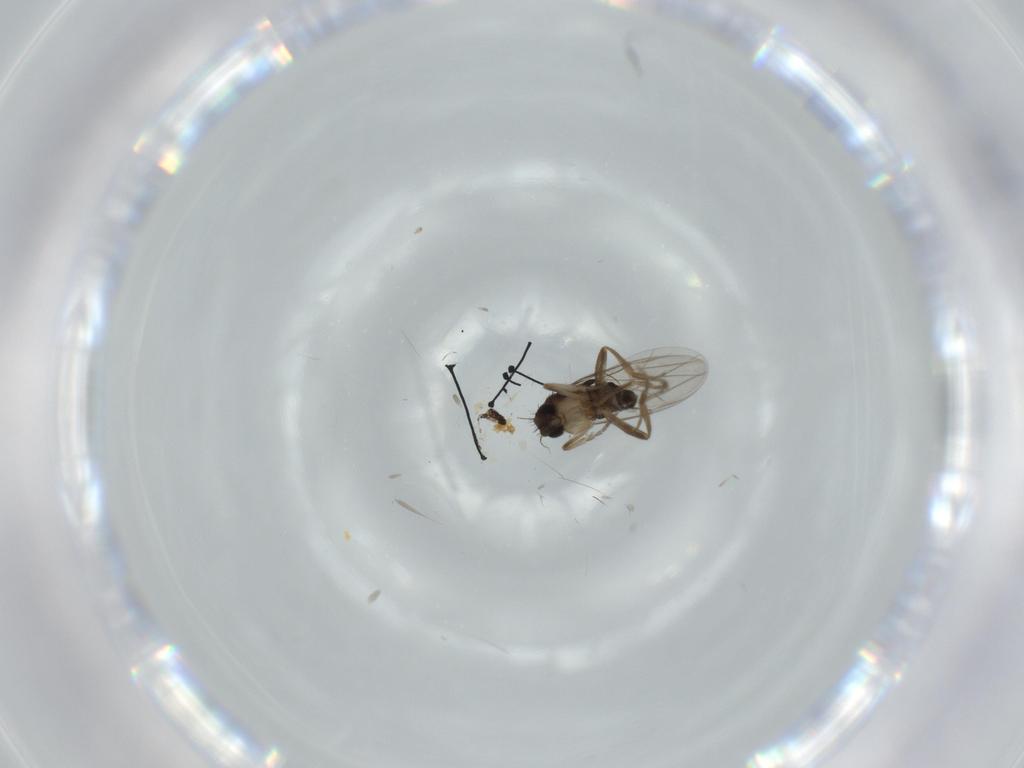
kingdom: Animalia
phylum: Arthropoda
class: Insecta
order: Diptera
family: Phoridae
